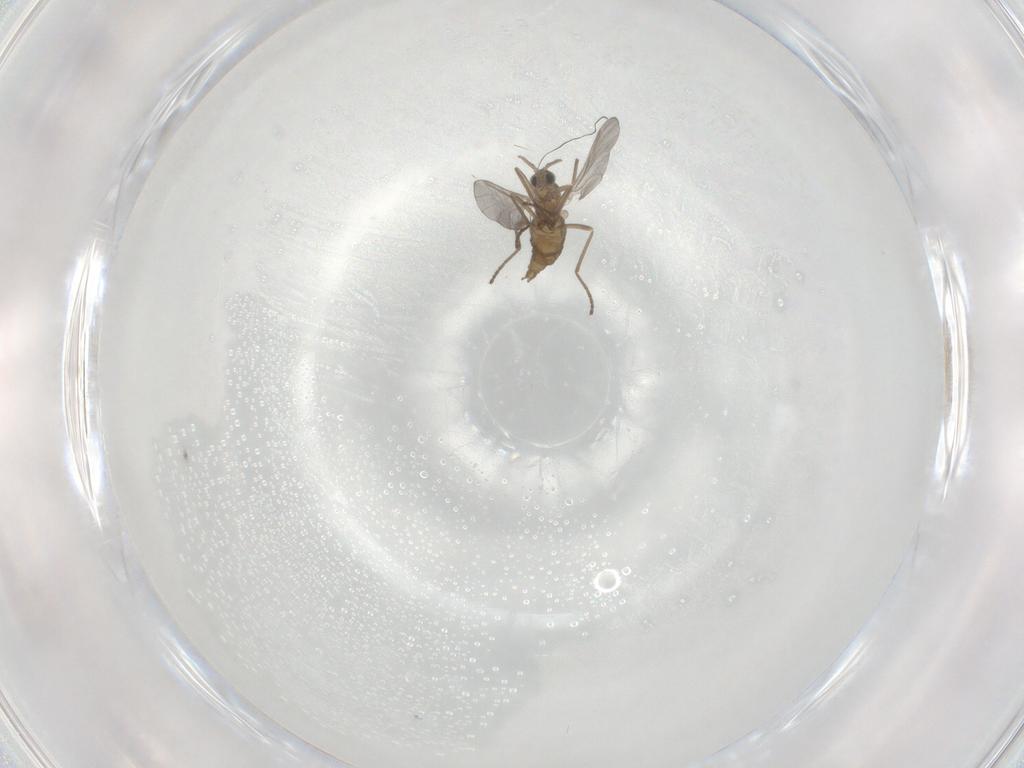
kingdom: Animalia
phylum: Arthropoda
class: Insecta
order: Diptera
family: Cecidomyiidae
